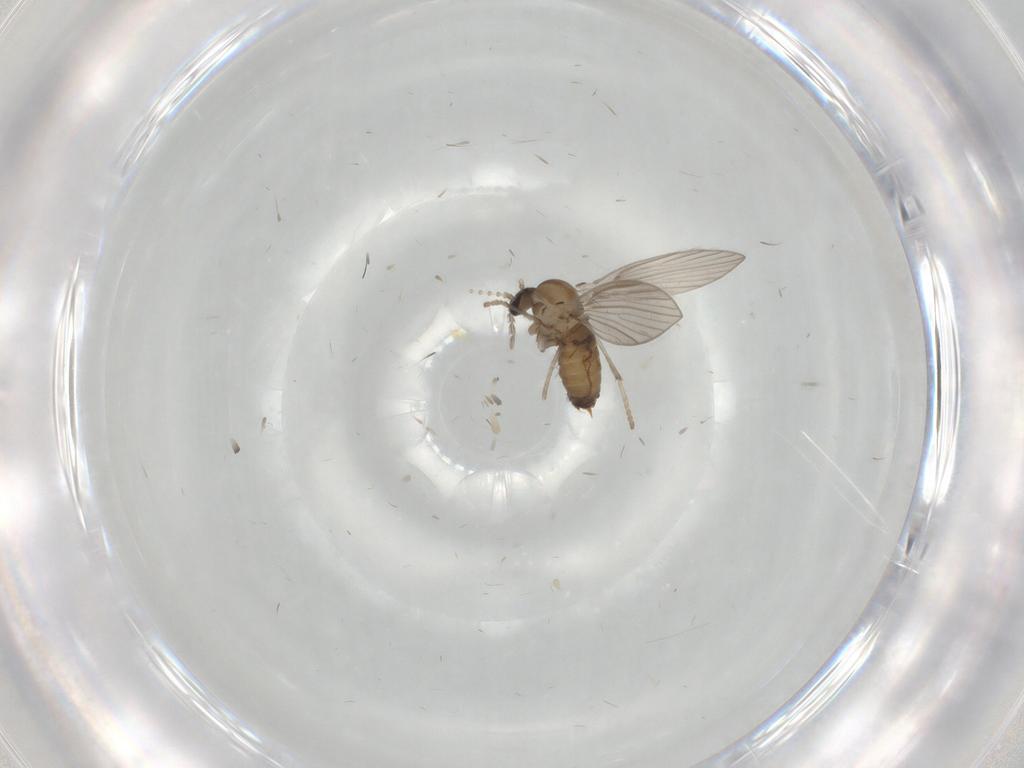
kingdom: Animalia
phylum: Arthropoda
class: Insecta
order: Diptera
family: Psychodidae
